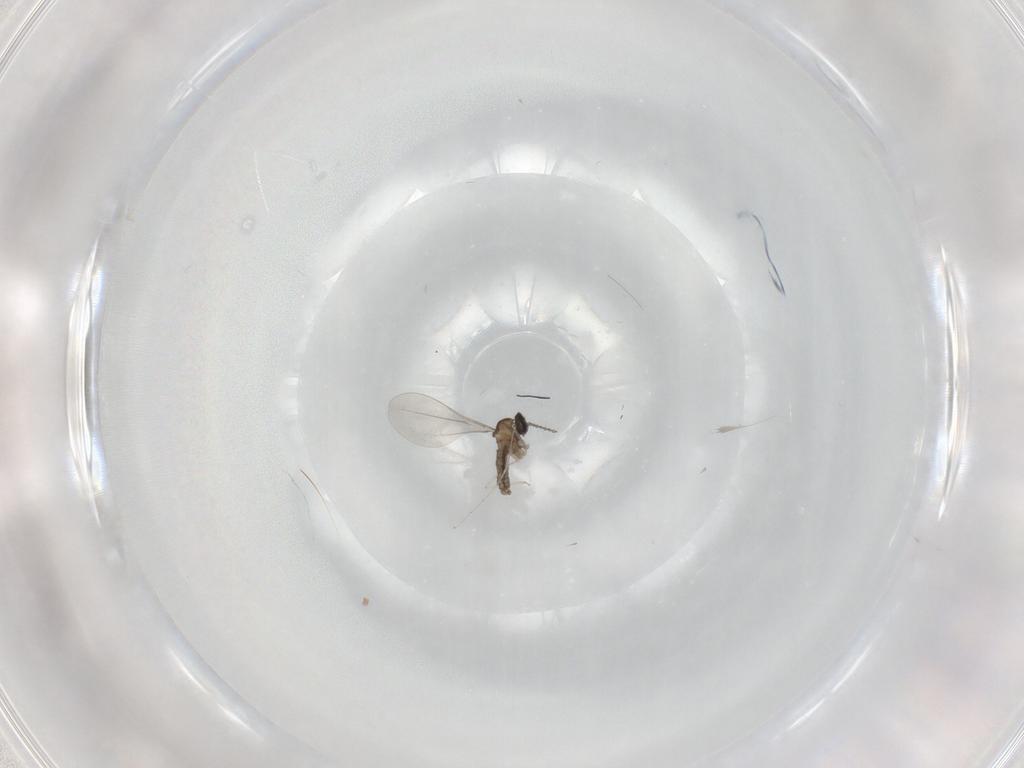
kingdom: Animalia
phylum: Arthropoda
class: Insecta
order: Diptera
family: Cecidomyiidae
